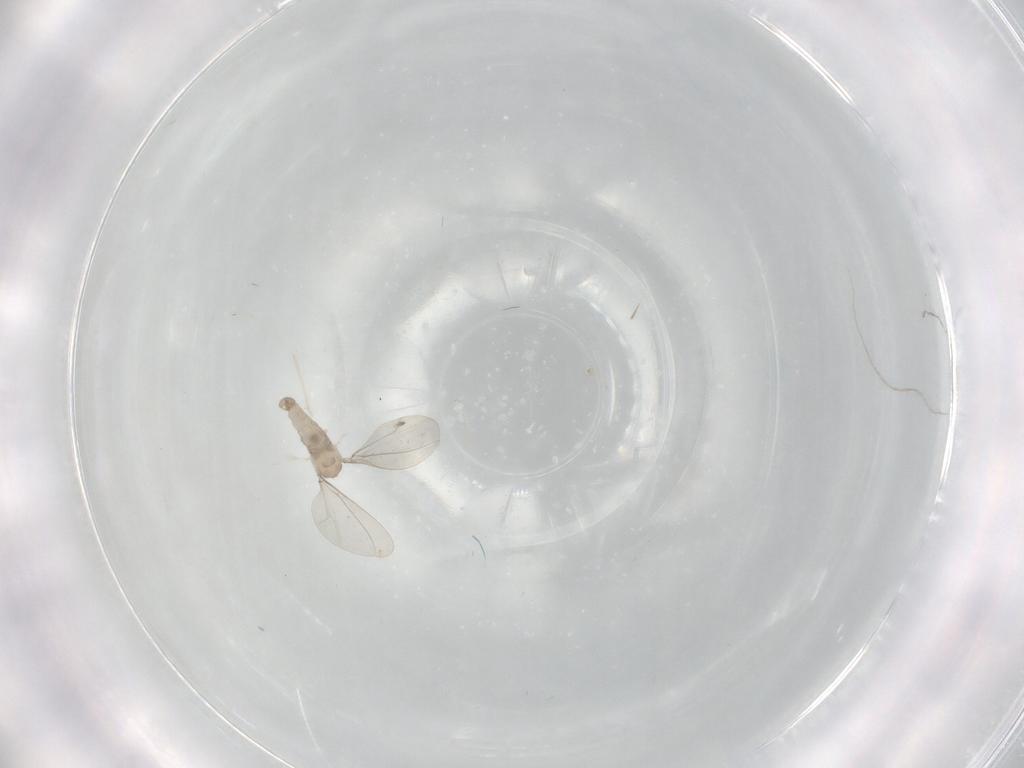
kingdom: Animalia
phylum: Arthropoda
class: Insecta
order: Diptera
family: Cecidomyiidae
